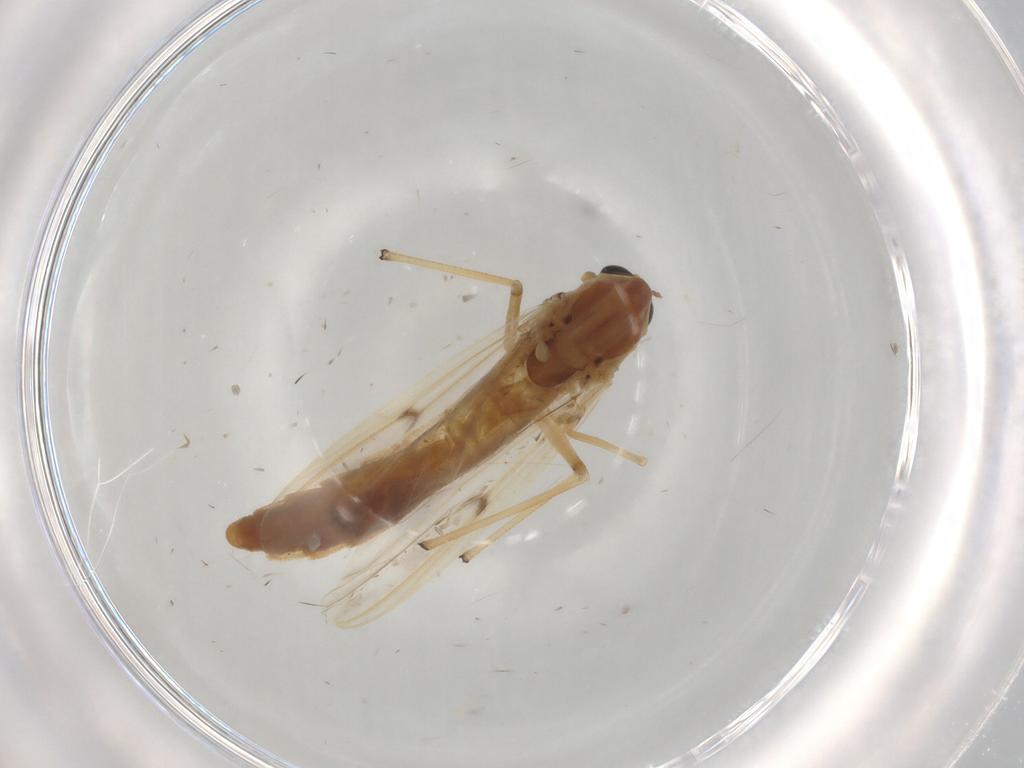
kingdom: Animalia
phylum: Arthropoda
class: Insecta
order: Diptera
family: Chironomidae
